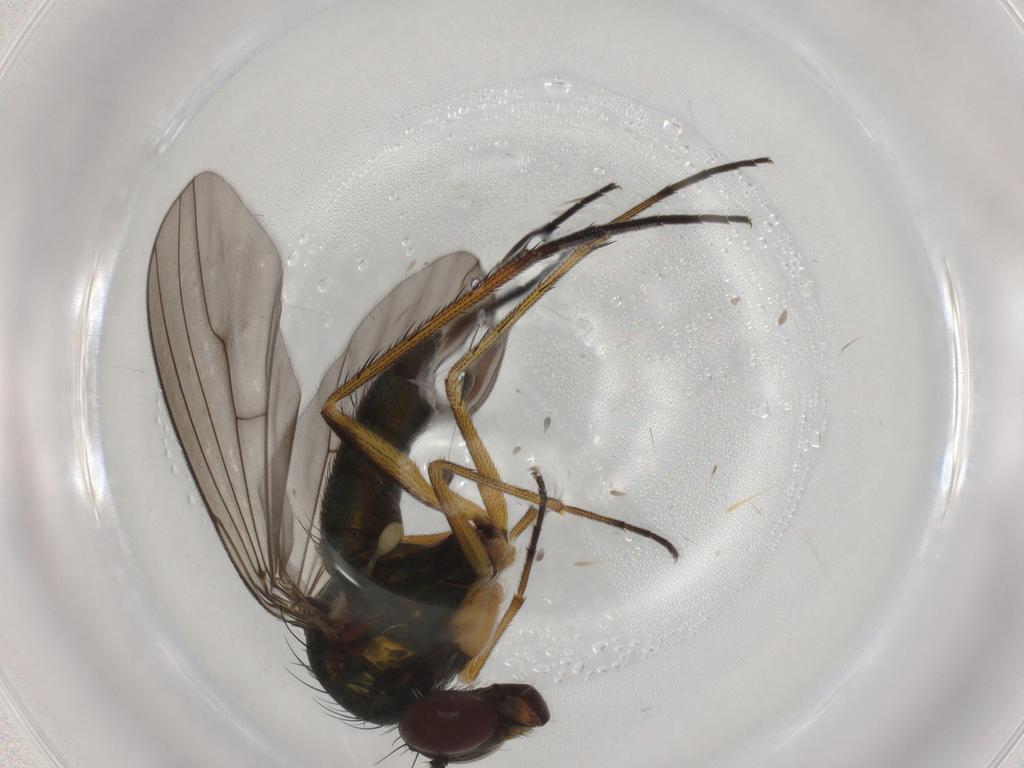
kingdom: Animalia
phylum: Arthropoda
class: Insecta
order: Diptera
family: Dolichopodidae
